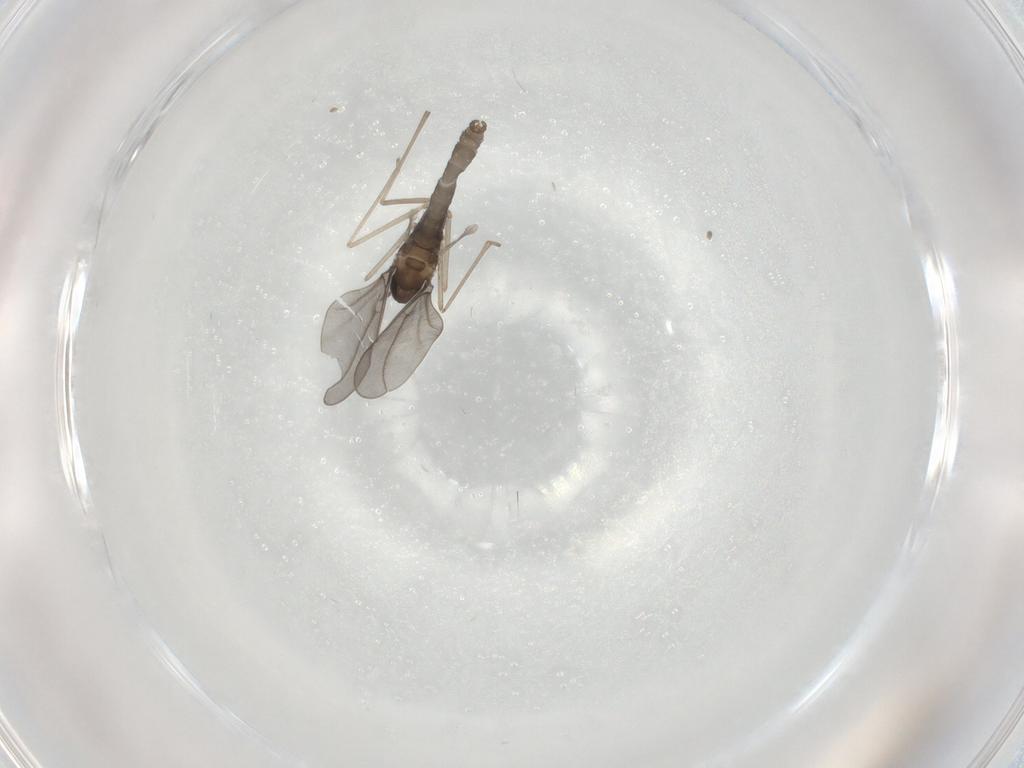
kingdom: Animalia
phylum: Arthropoda
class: Insecta
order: Diptera
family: Cecidomyiidae
